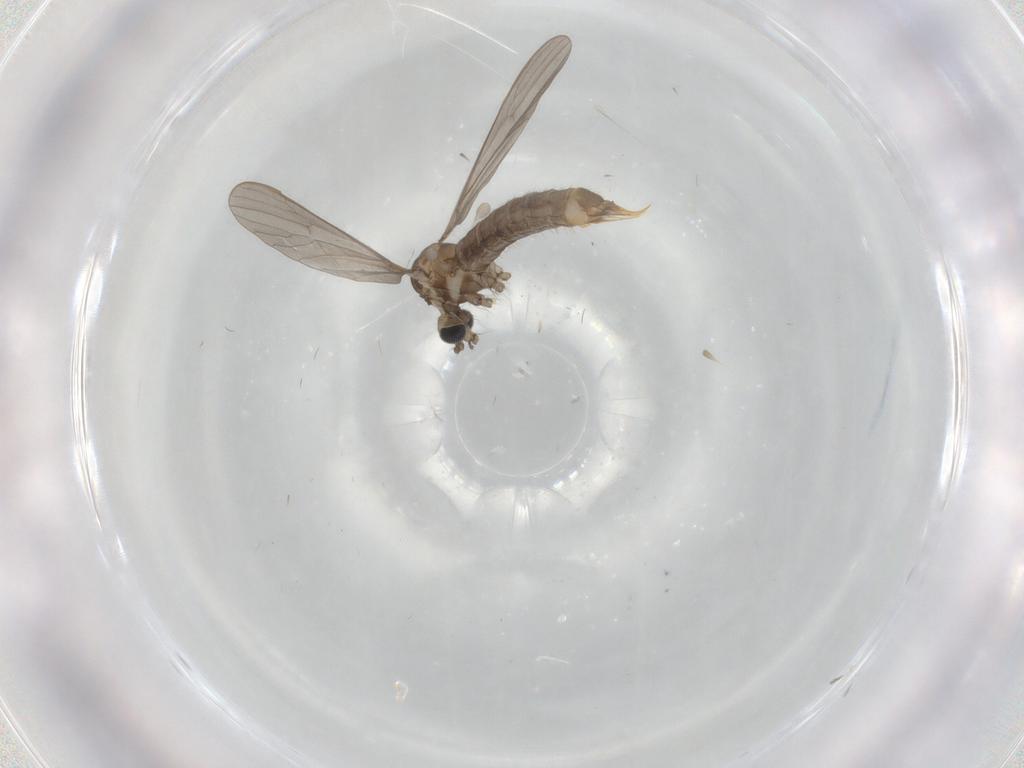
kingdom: Animalia
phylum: Arthropoda
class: Insecta
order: Diptera
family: Limoniidae
